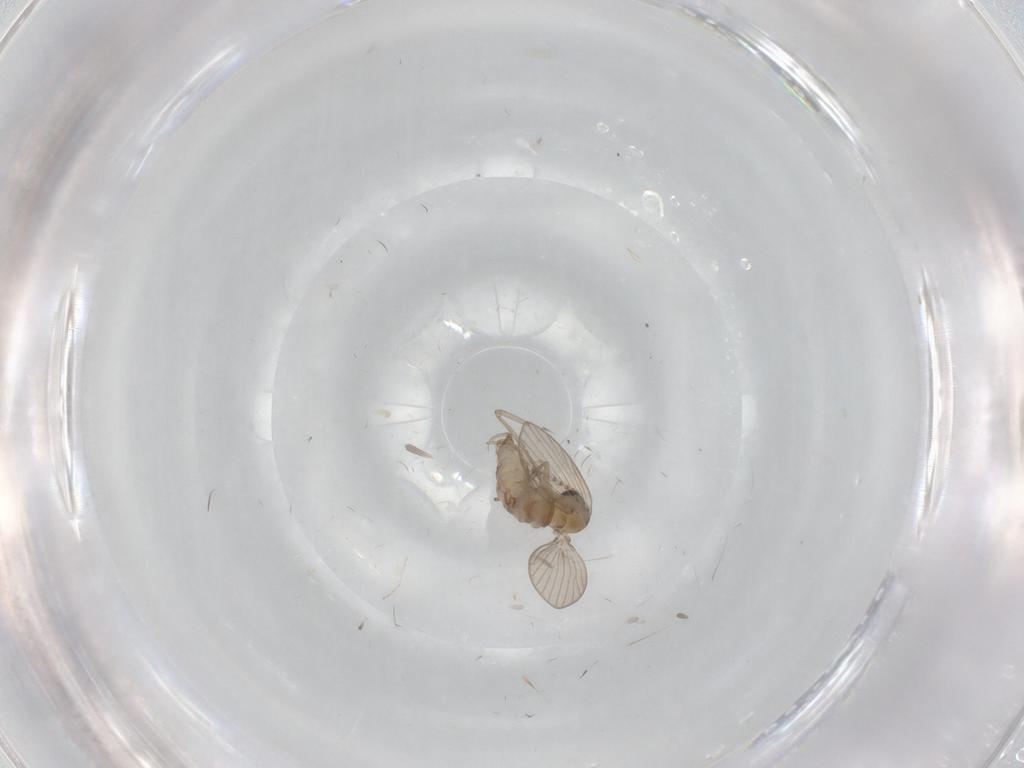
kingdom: Animalia
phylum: Arthropoda
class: Insecta
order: Diptera
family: Psychodidae
